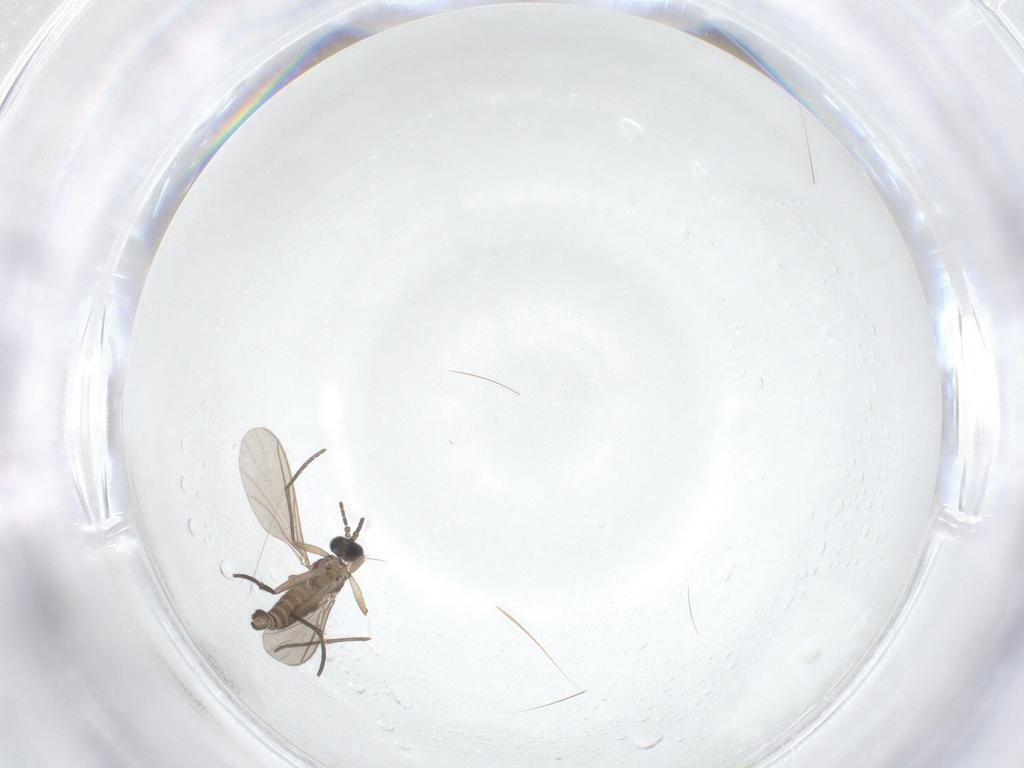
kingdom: Animalia
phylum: Arthropoda
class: Insecta
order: Diptera
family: Sciaridae
